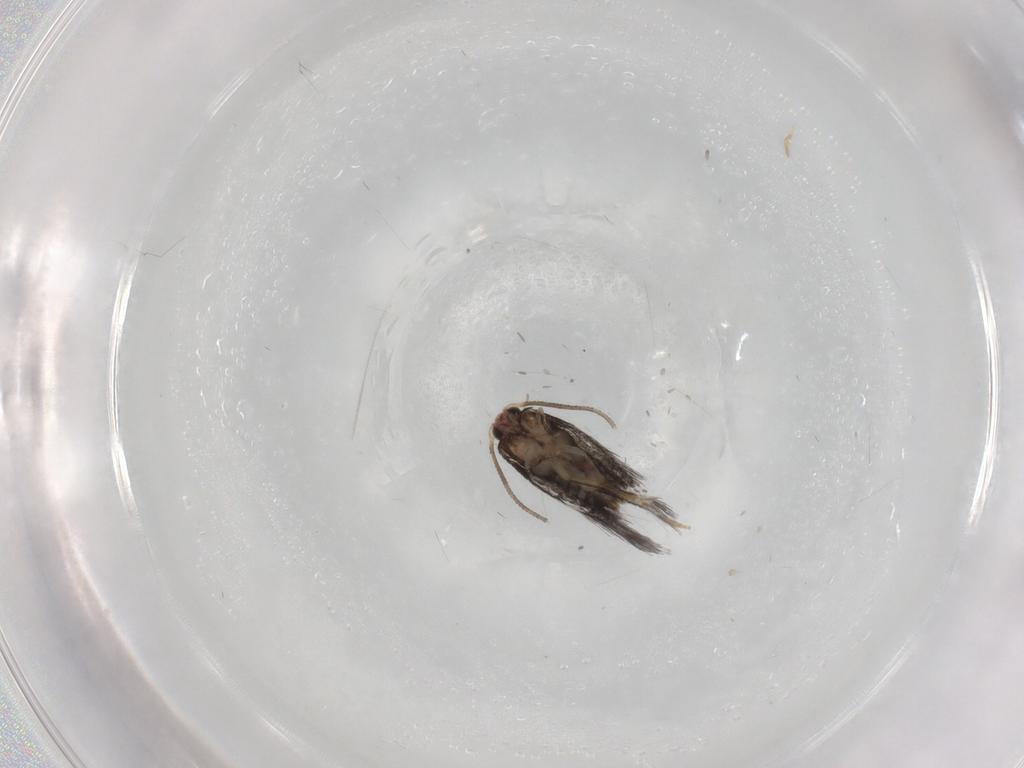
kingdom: Animalia
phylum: Arthropoda
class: Insecta
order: Lepidoptera
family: Nepticulidae
